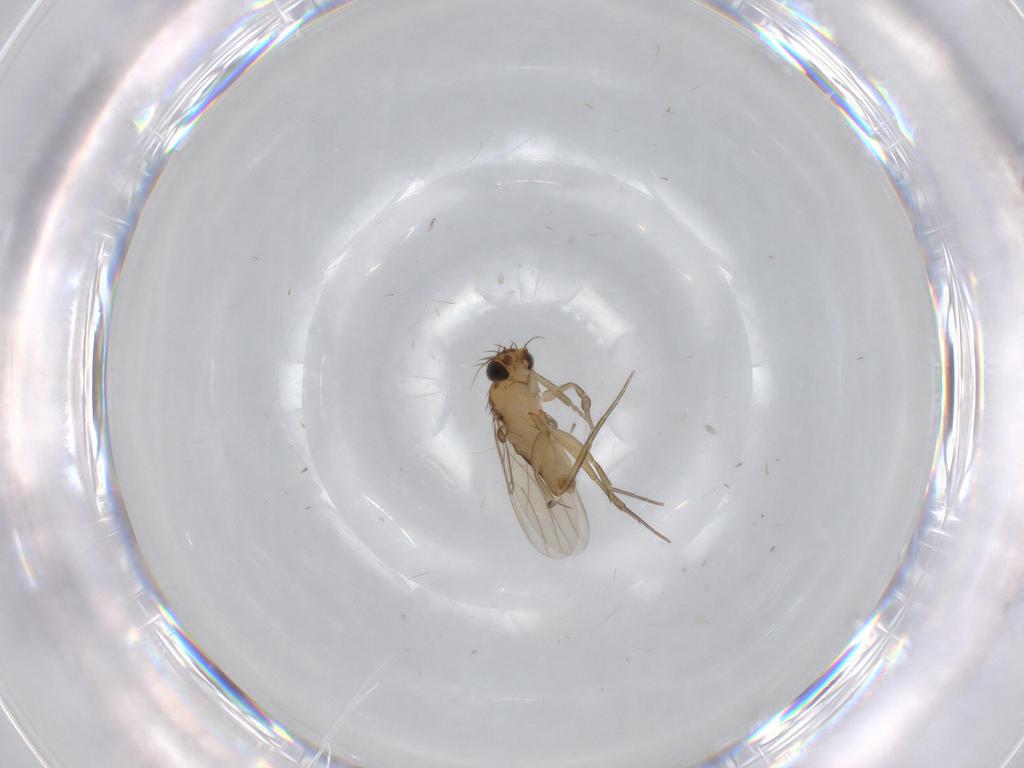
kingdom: Animalia
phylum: Arthropoda
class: Insecta
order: Diptera
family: Phoridae
